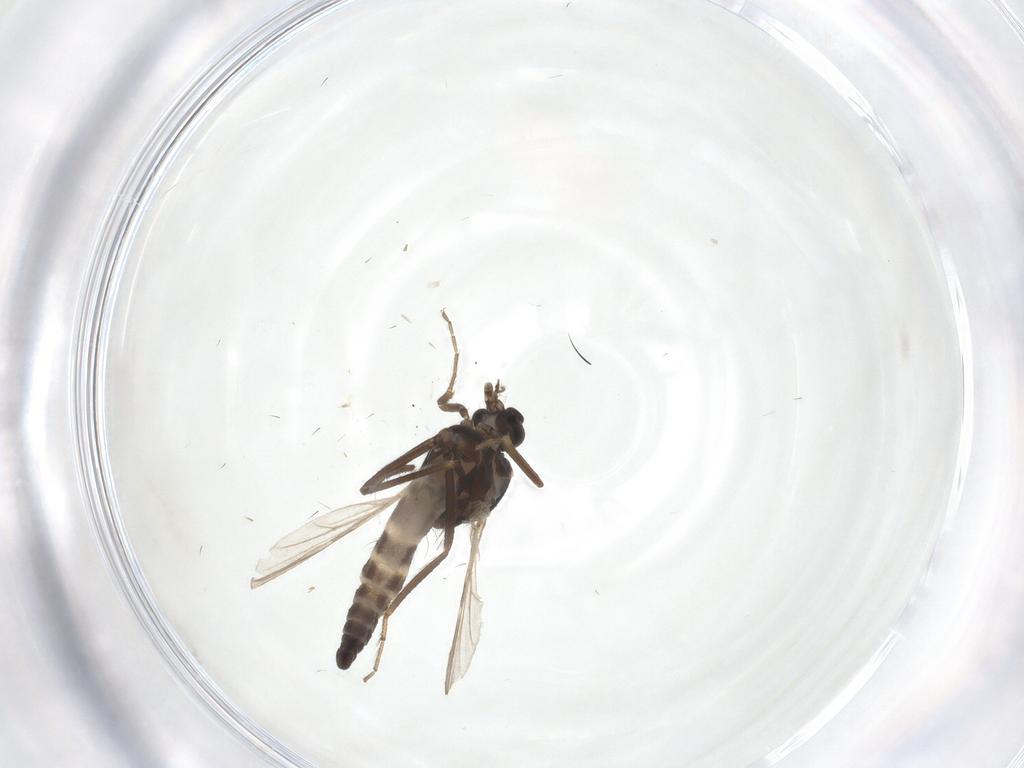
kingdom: Animalia
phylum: Arthropoda
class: Insecta
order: Diptera
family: Ceratopogonidae
